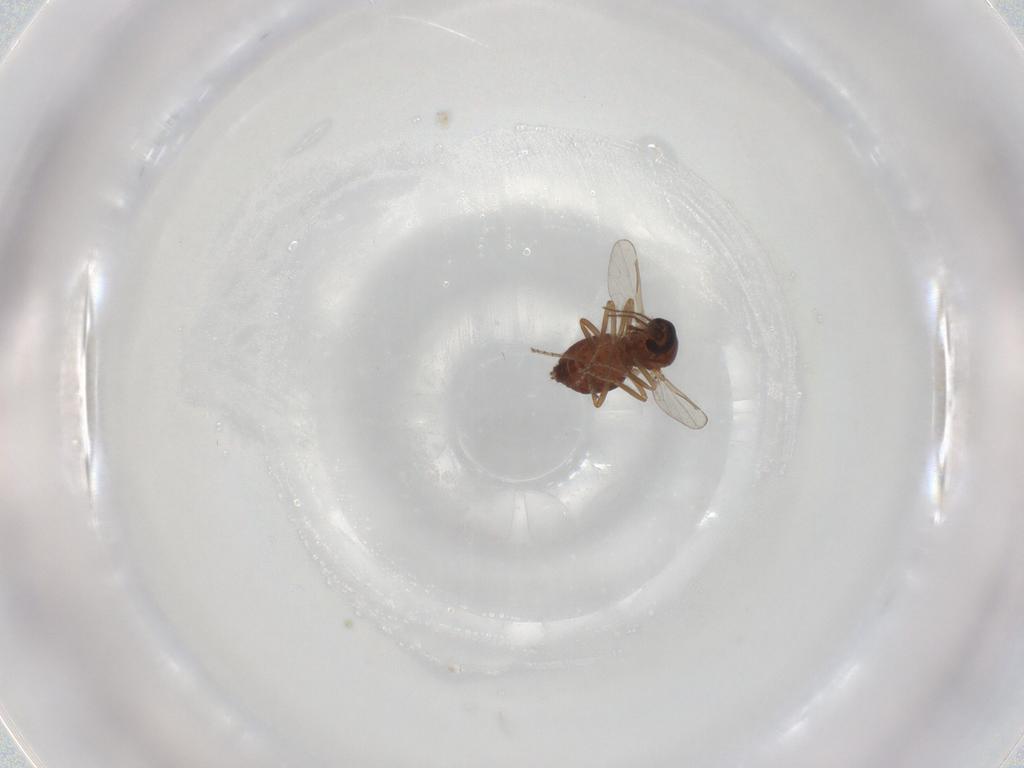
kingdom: Animalia
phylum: Arthropoda
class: Insecta
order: Diptera
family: Ceratopogonidae
